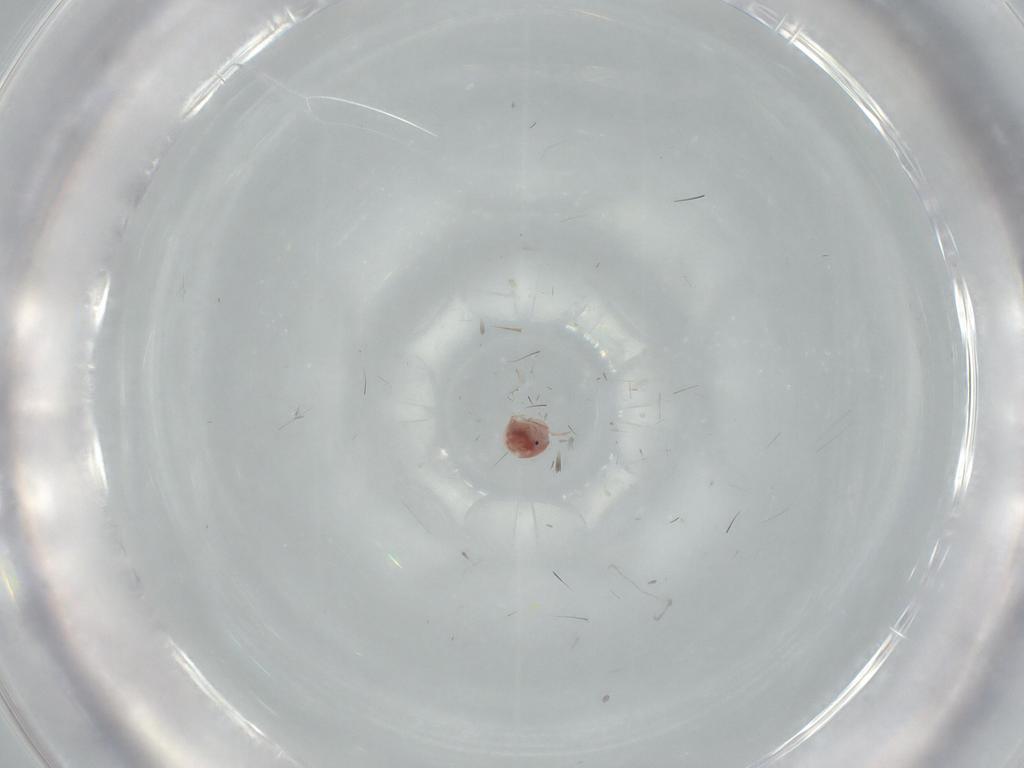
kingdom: Animalia
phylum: Arthropoda
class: Arachnida
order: Trombidiformes
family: Pionidae
